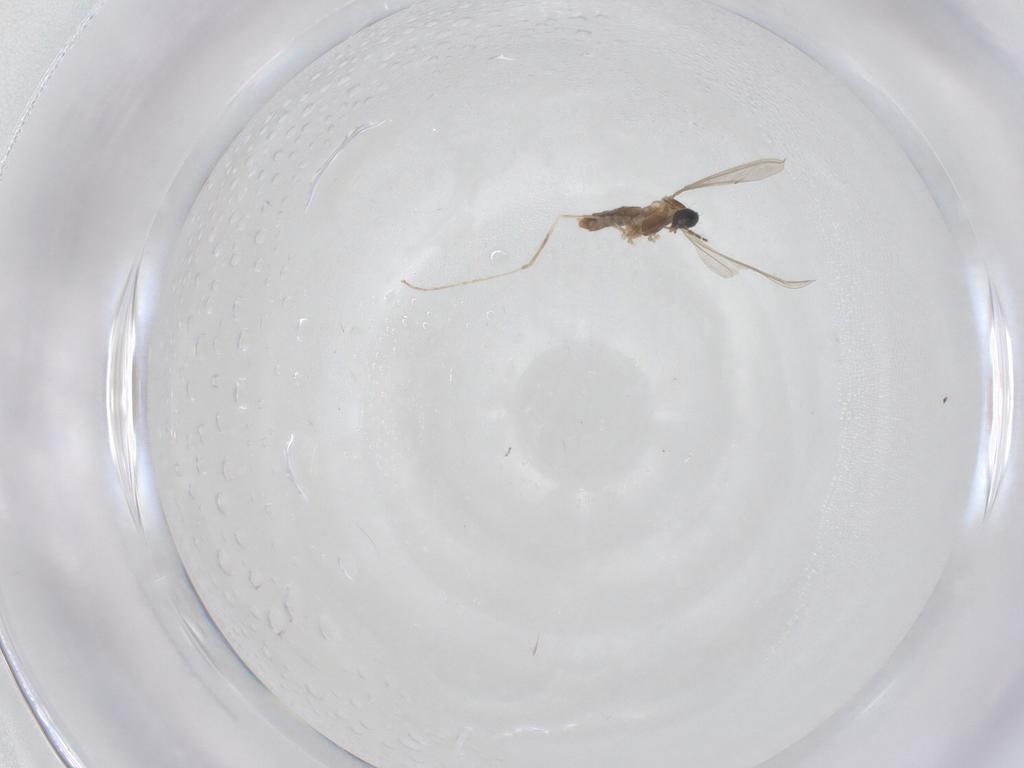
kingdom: Animalia
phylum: Arthropoda
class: Insecta
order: Diptera
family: Cecidomyiidae
